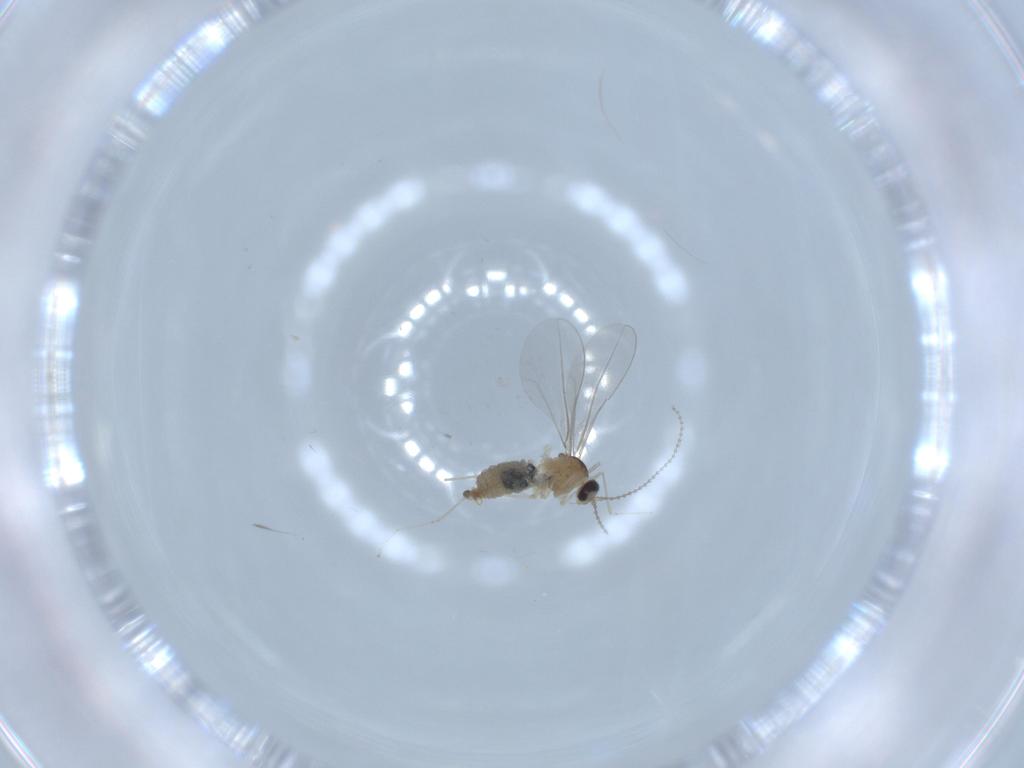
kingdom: Animalia
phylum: Arthropoda
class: Insecta
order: Diptera
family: Cecidomyiidae
